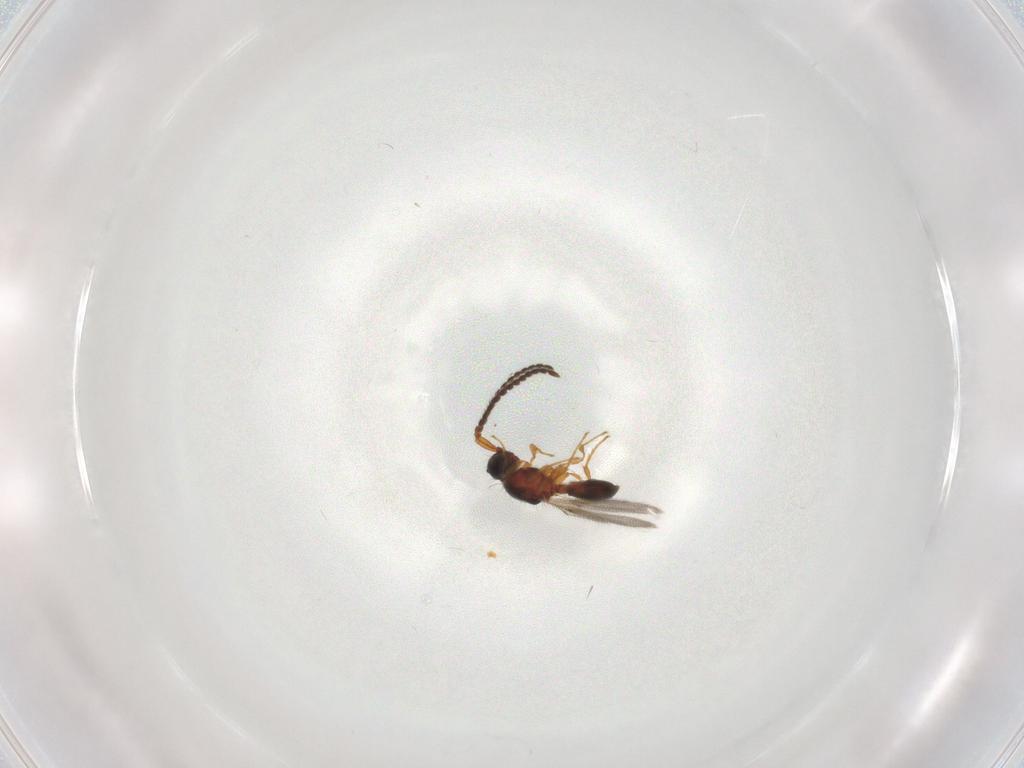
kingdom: Animalia
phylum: Arthropoda
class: Insecta
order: Hymenoptera
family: Diapriidae
